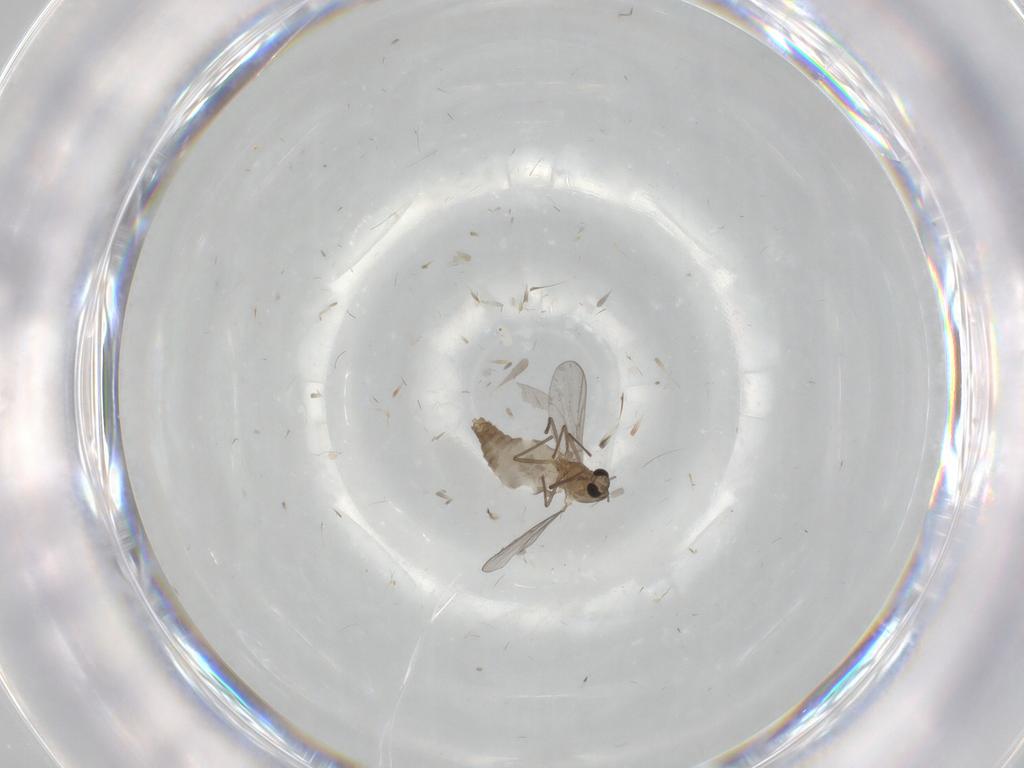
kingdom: Animalia
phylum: Arthropoda
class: Insecta
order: Diptera
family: Chironomidae
